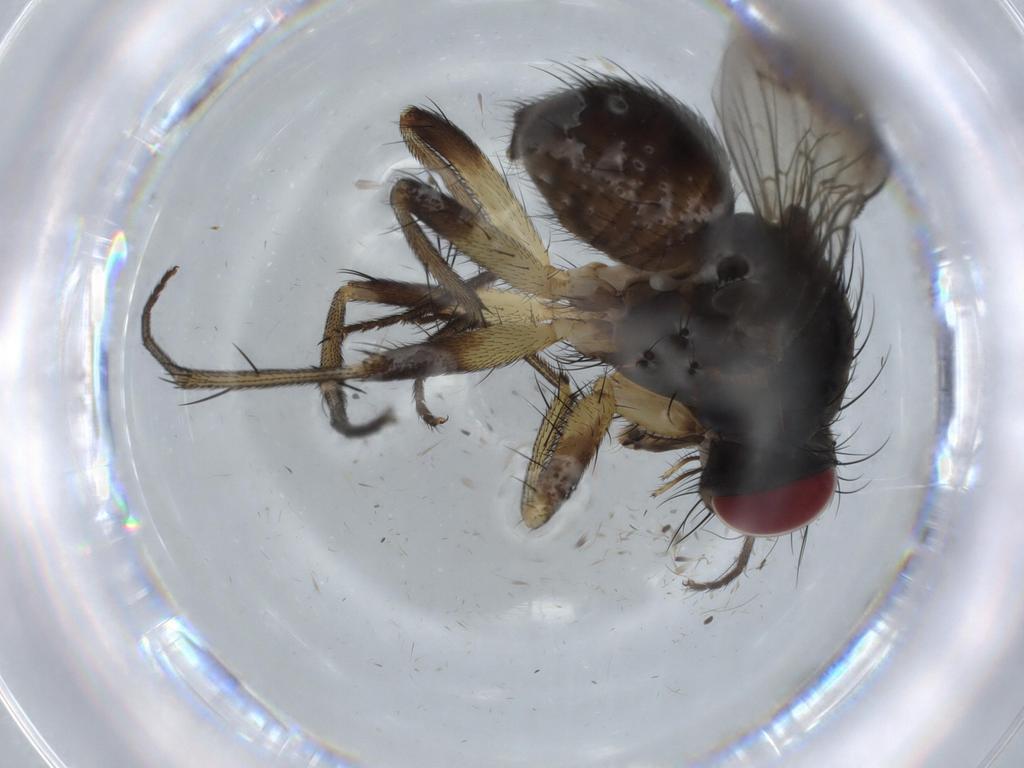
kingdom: Animalia
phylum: Arthropoda
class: Insecta
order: Diptera
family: Muscidae
